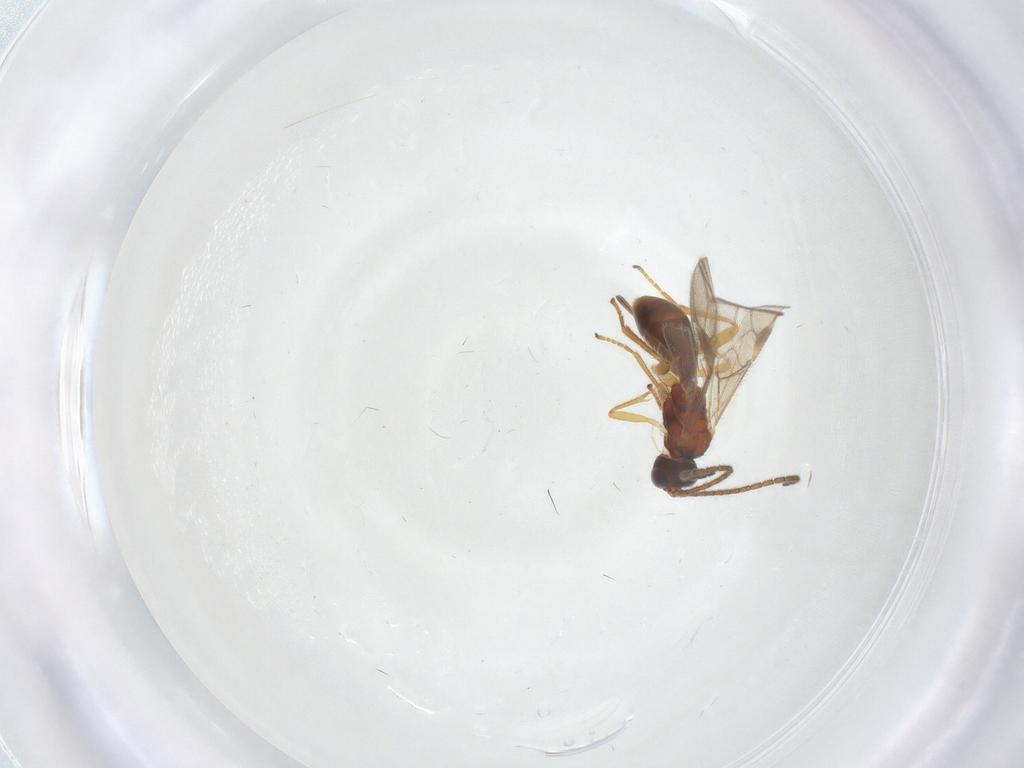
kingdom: Animalia
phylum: Arthropoda
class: Insecta
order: Hymenoptera
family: Braconidae
